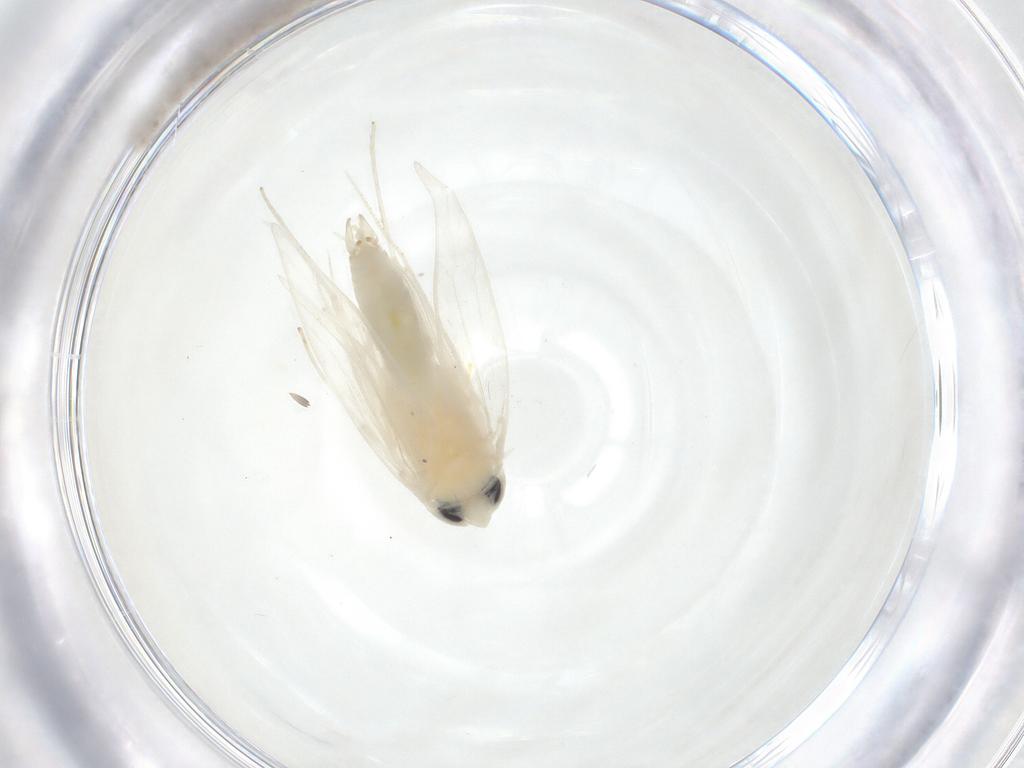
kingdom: Animalia
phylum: Arthropoda
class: Insecta
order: Lepidoptera
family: Stathmopodidae
